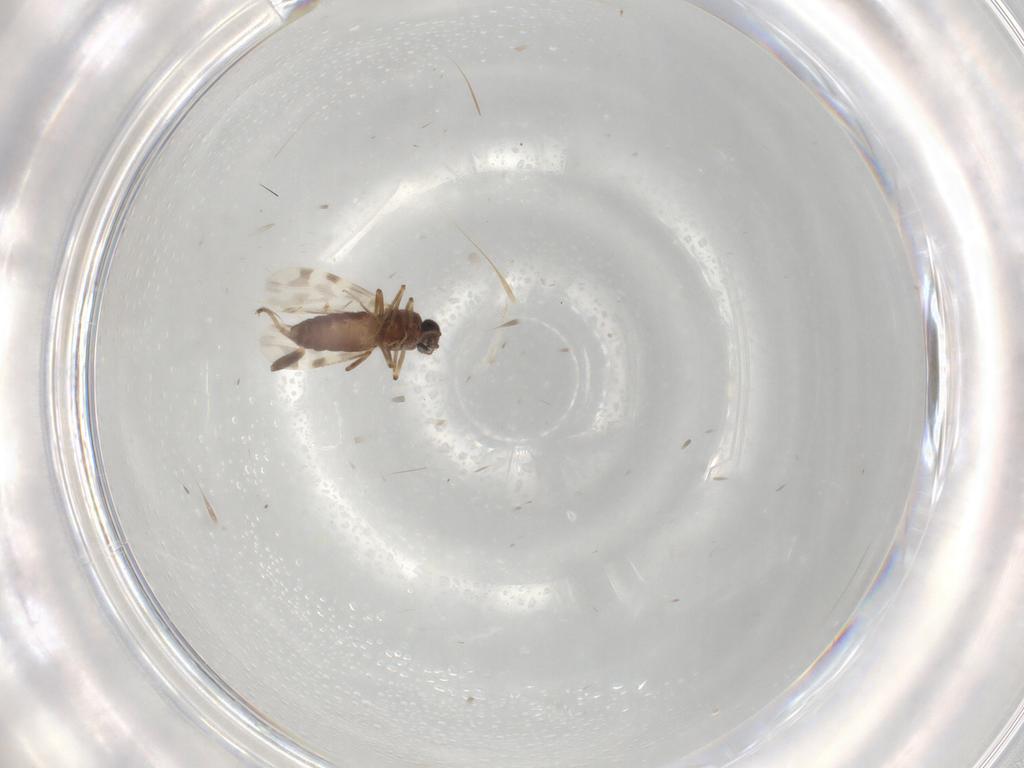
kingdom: Animalia
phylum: Arthropoda
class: Insecta
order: Diptera
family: Ceratopogonidae
